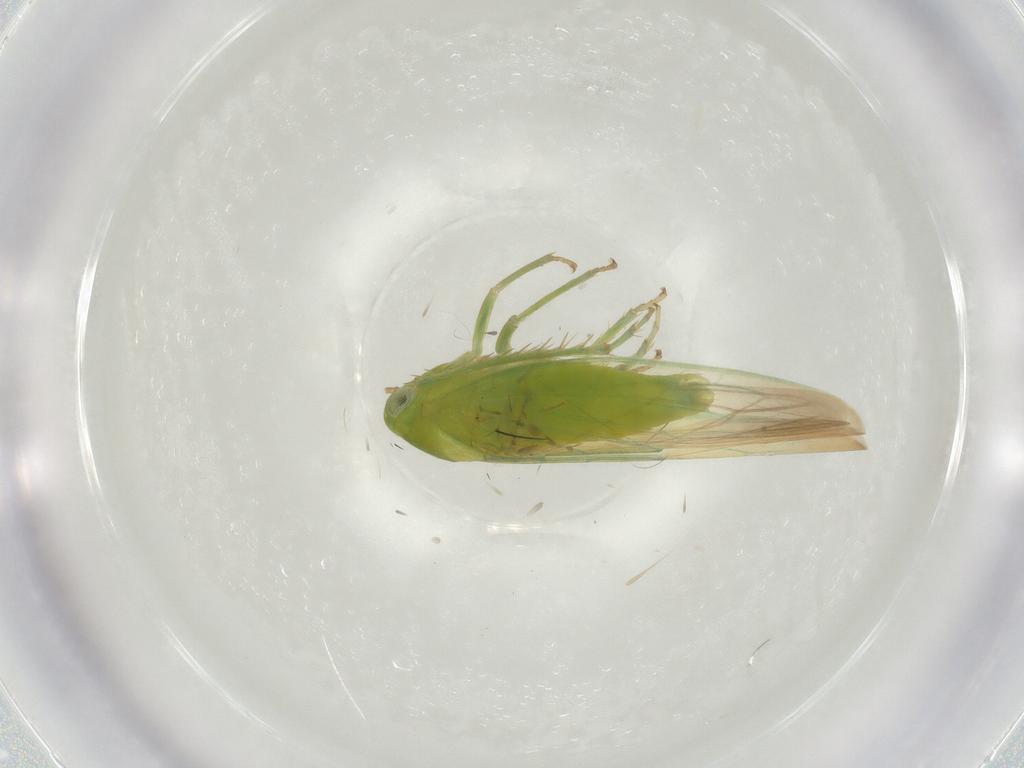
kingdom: Animalia
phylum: Arthropoda
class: Insecta
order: Hemiptera
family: Cicadellidae
